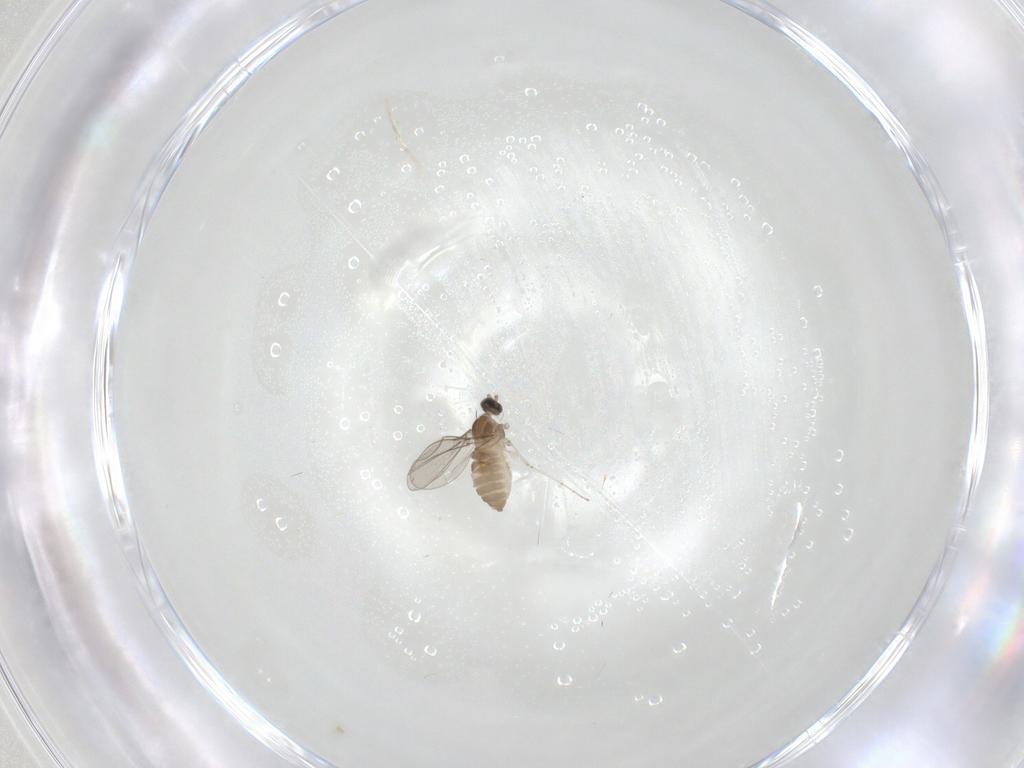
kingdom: Animalia
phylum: Arthropoda
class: Insecta
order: Diptera
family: Cecidomyiidae
